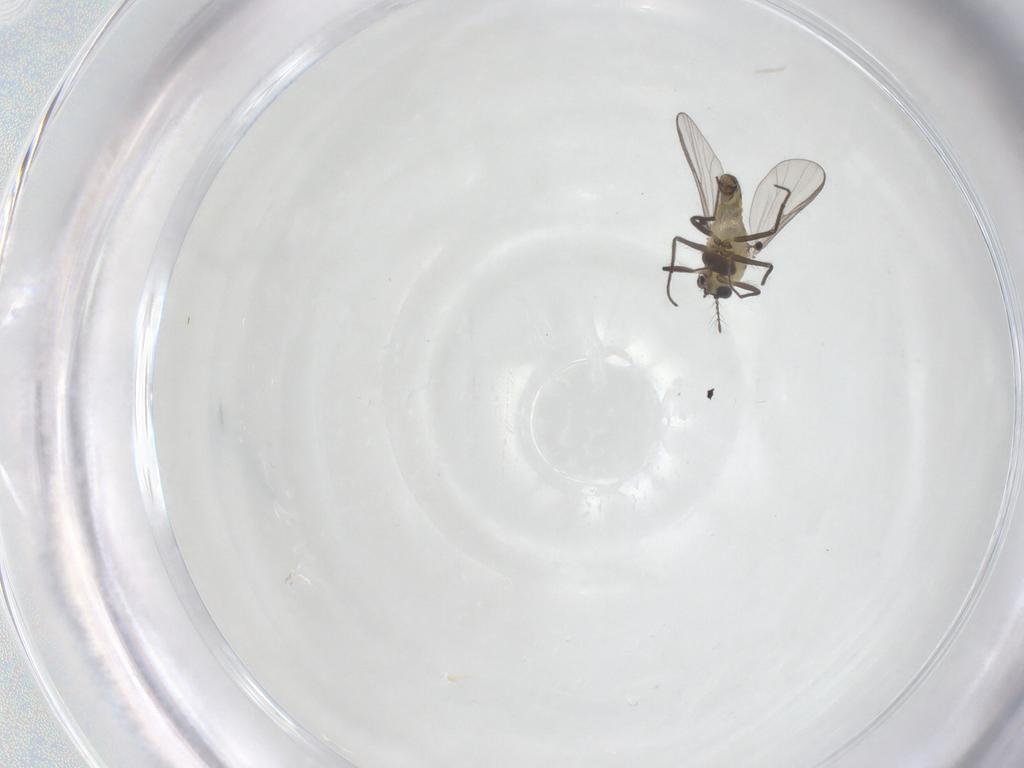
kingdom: Animalia
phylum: Arthropoda
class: Insecta
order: Diptera
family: Chironomidae
